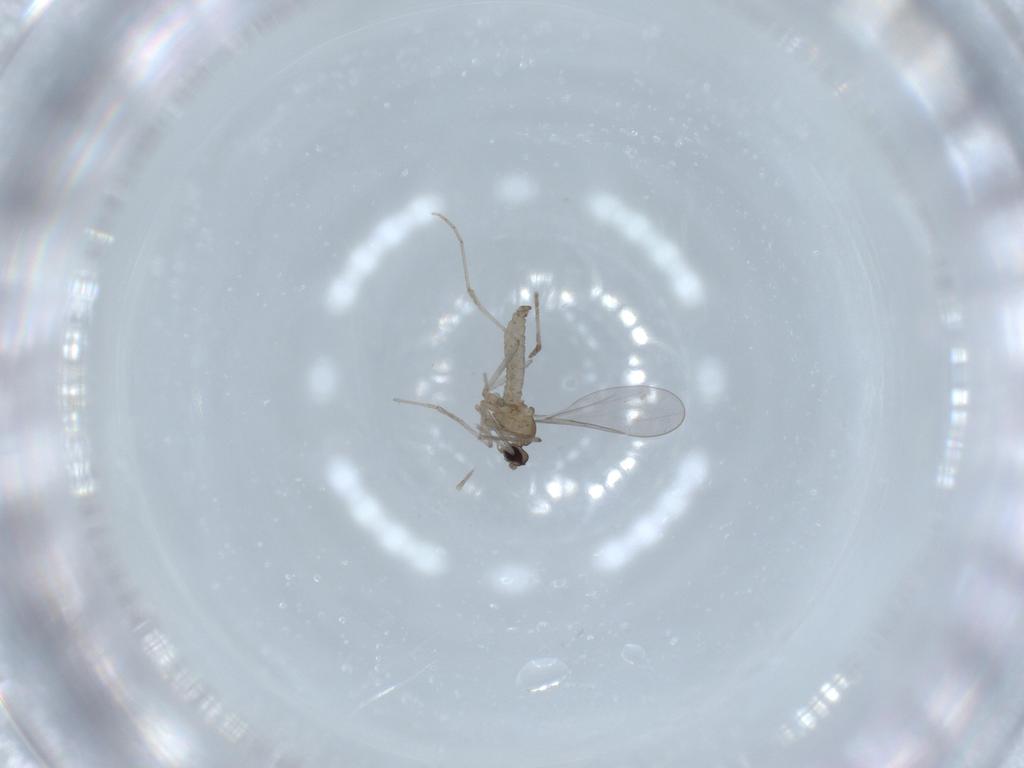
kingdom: Animalia
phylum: Arthropoda
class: Insecta
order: Diptera
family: Cecidomyiidae
